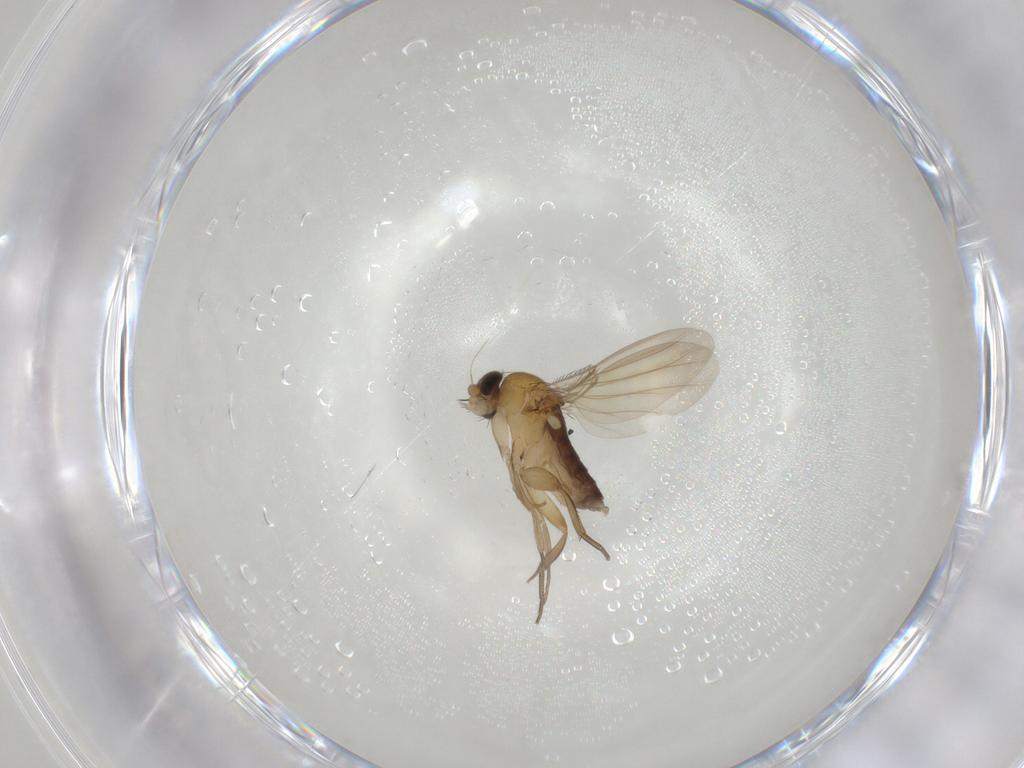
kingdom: Animalia
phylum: Arthropoda
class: Insecta
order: Diptera
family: Phoridae
